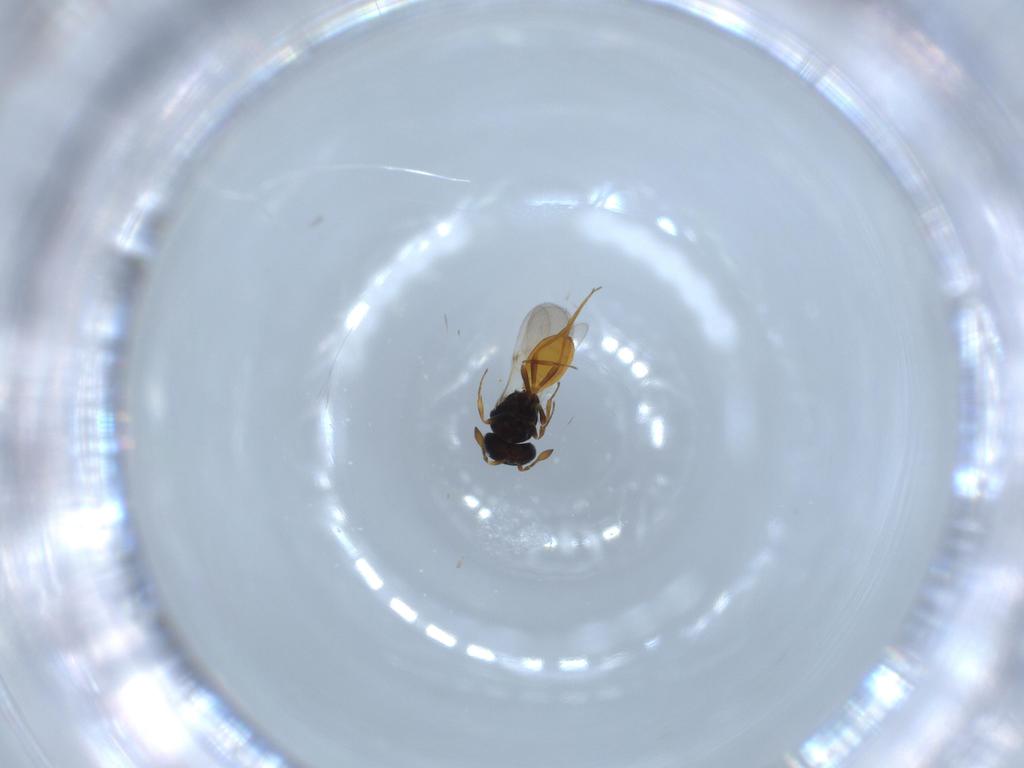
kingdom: Animalia
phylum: Arthropoda
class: Insecta
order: Hymenoptera
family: Scelionidae
